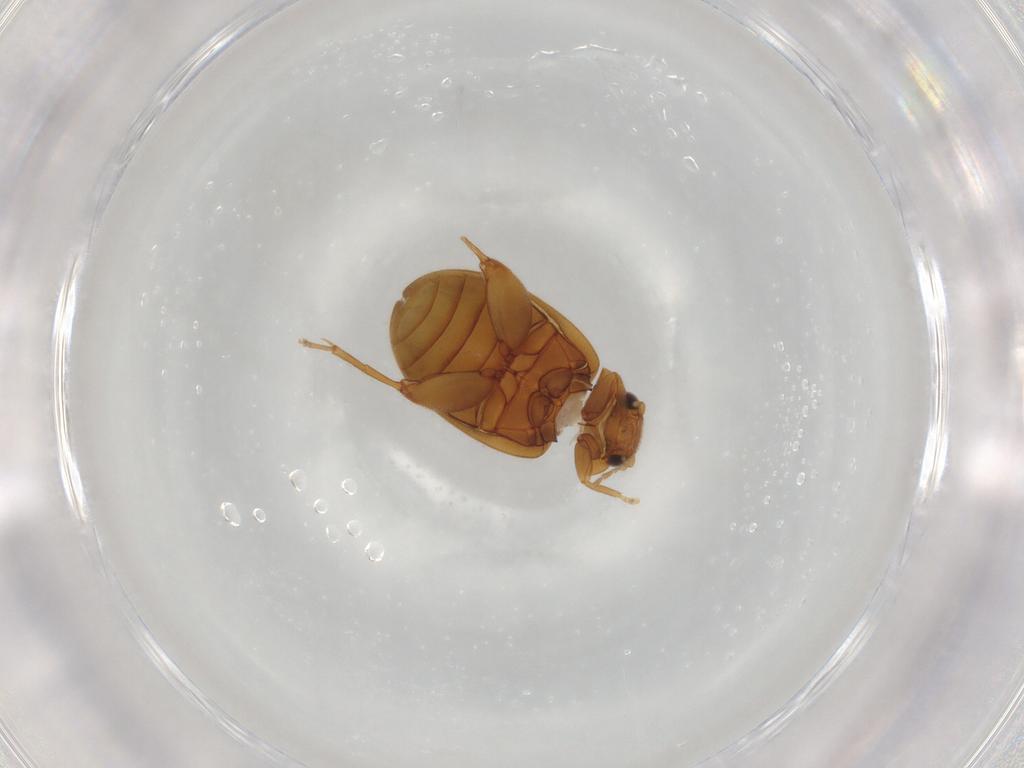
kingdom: Animalia
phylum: Arthropoda
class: Insecta
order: Coleoptera
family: Scirtidae
